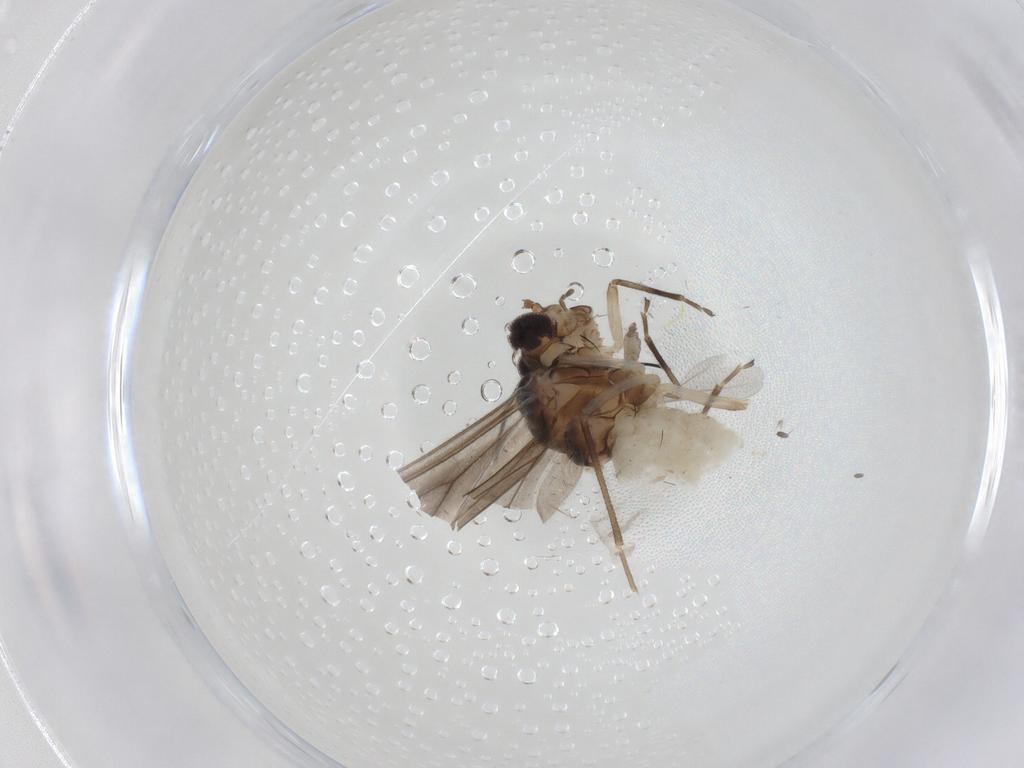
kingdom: Animalia
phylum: Arthropoda
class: Insecta
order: Psocodea
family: Caeciliusidae
